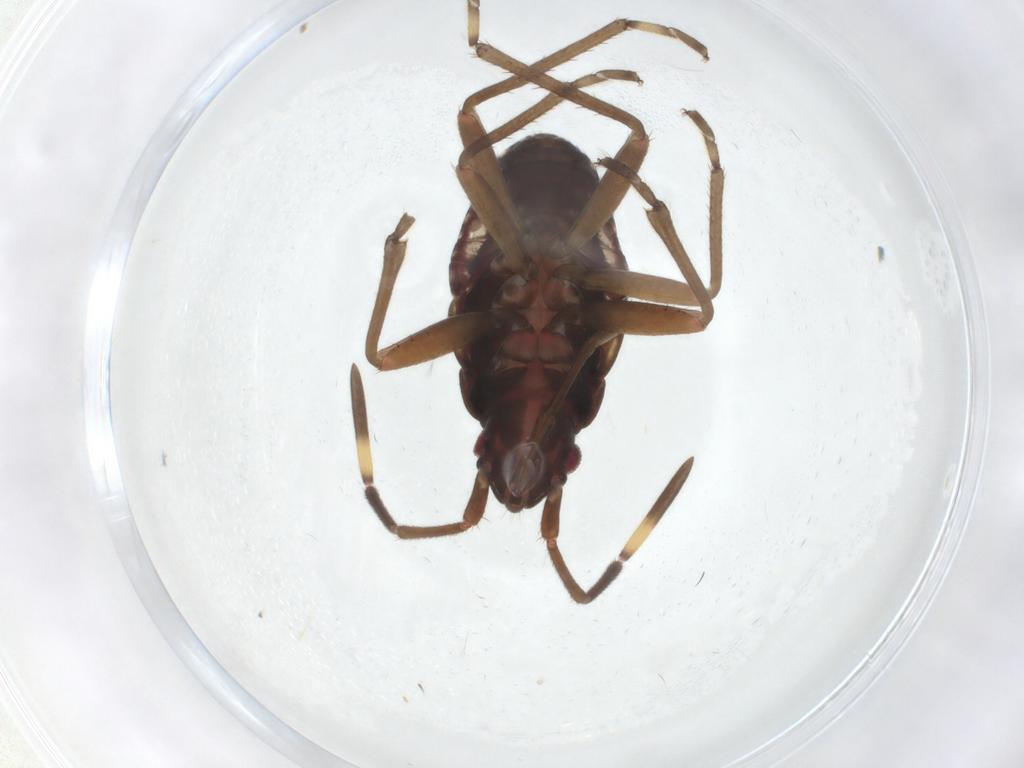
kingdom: Animalia
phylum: Arthropoda
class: Insecta
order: Hemiptera
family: Rhyparochromidae
